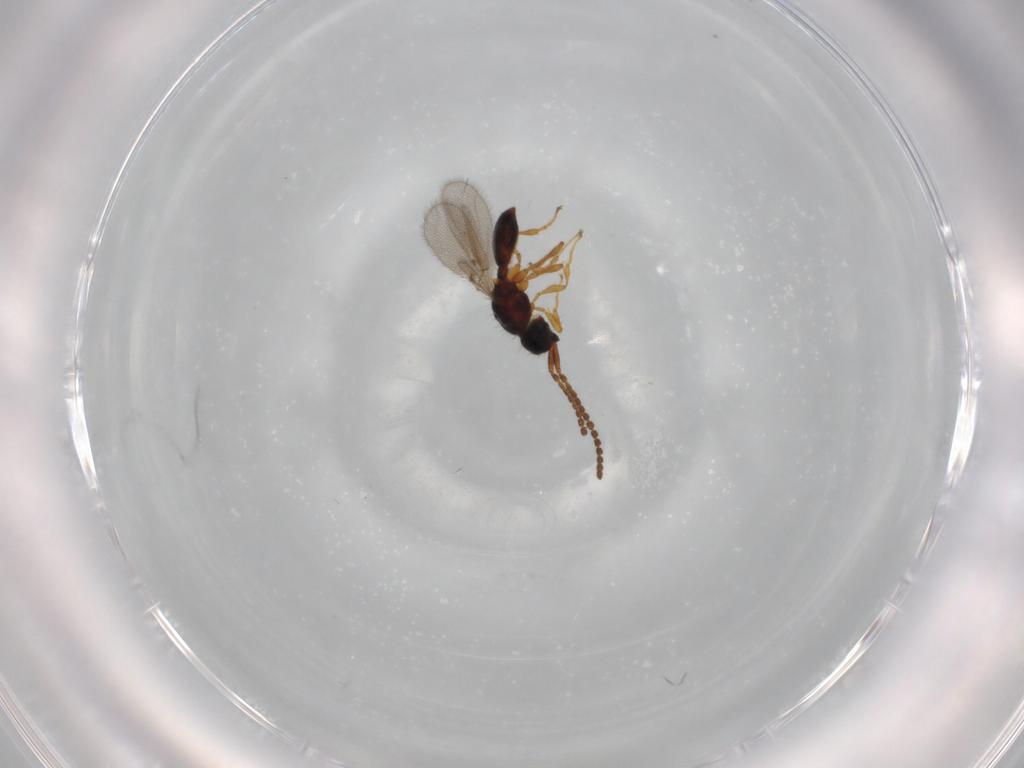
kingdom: Animalia
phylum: Arthropoda
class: Insecta
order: Hymenoptera
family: Diapriidae
